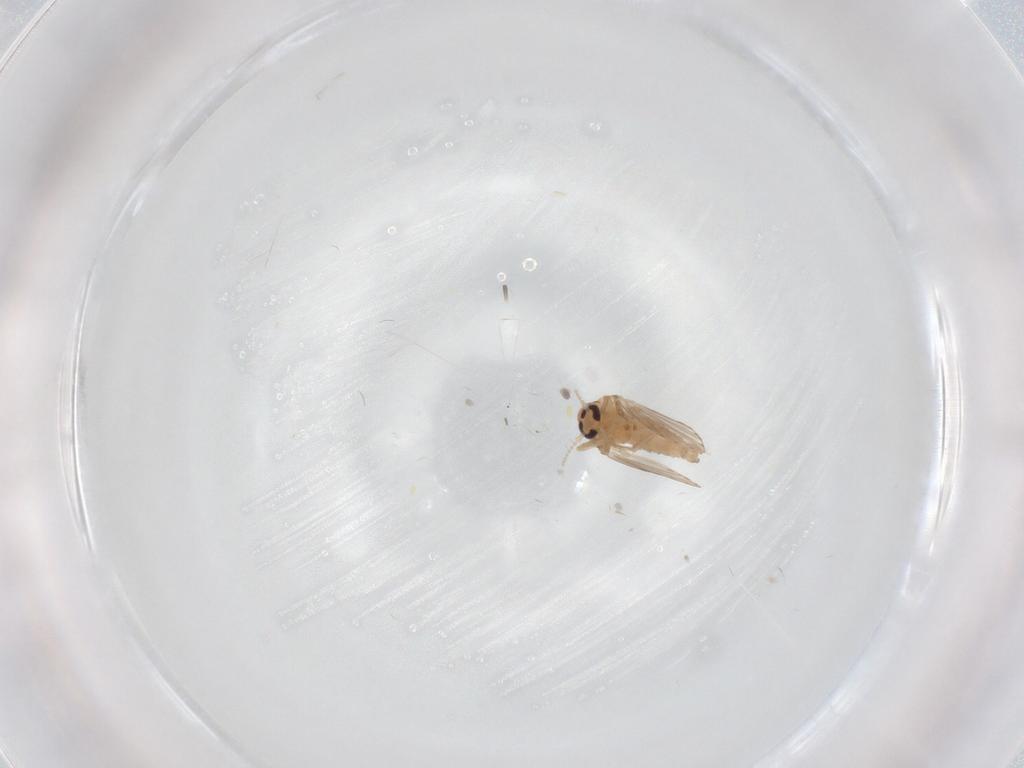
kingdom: Animalia
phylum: Arthropoda
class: Insecta
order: Diptera
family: Psychodidae
